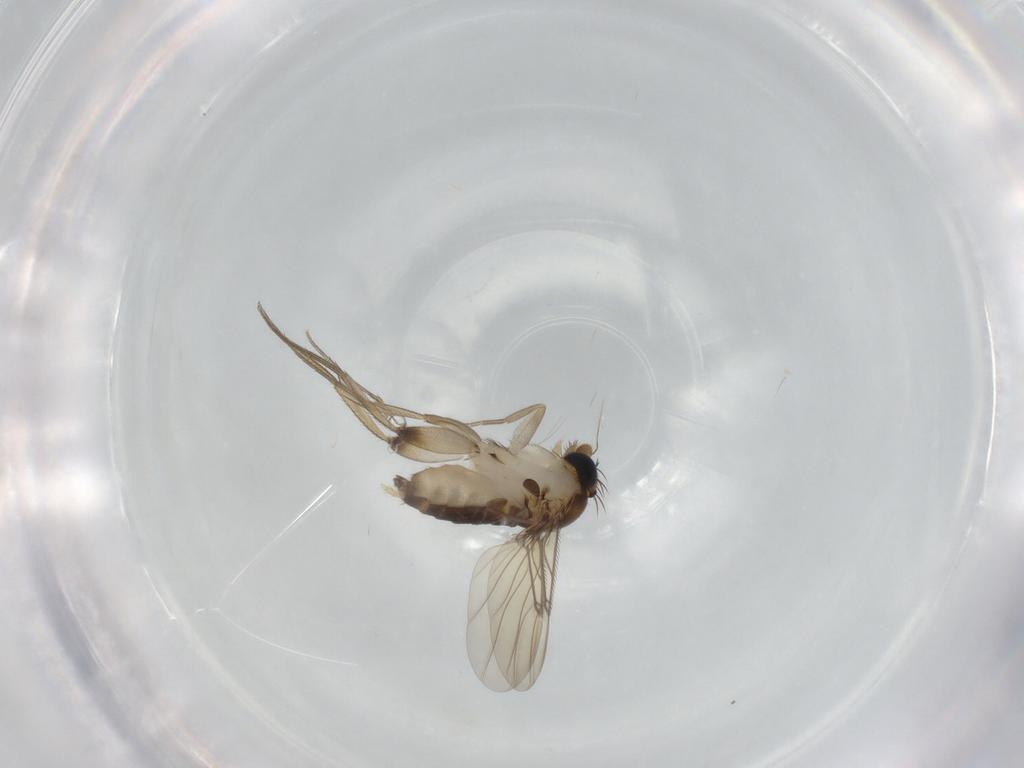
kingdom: Animalia
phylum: Arthropoda
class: Insecta
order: Diptera
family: Phoridae
